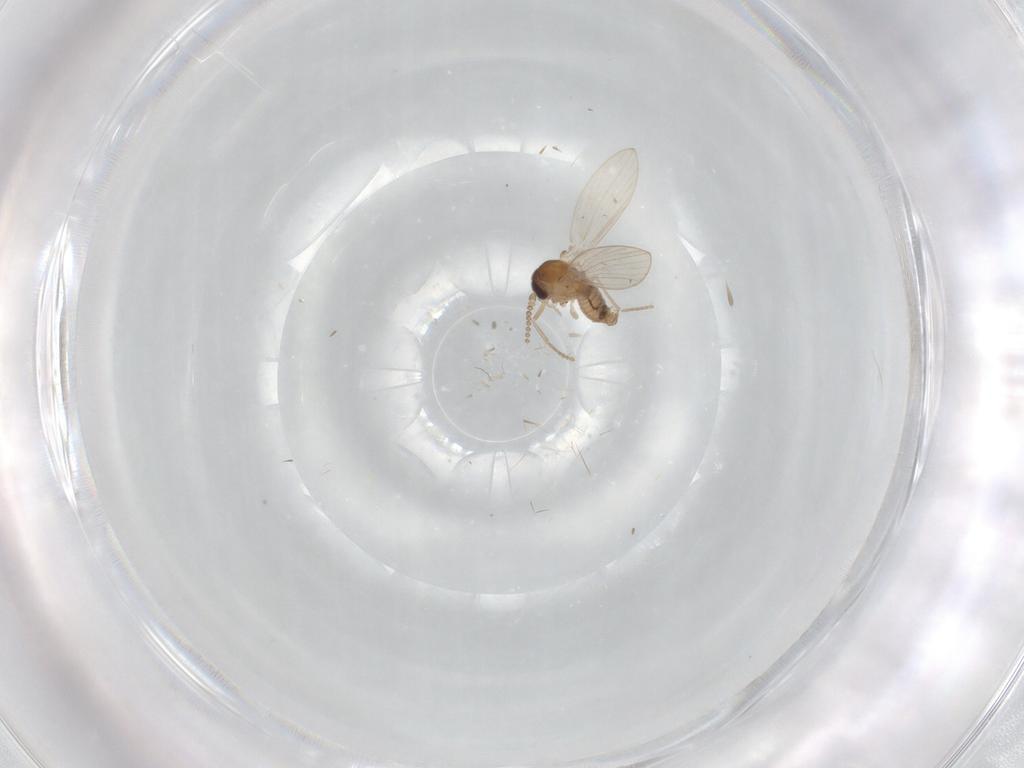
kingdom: Animalia
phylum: Arthropoda
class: Insecta
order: Diptera
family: Psychodidae
